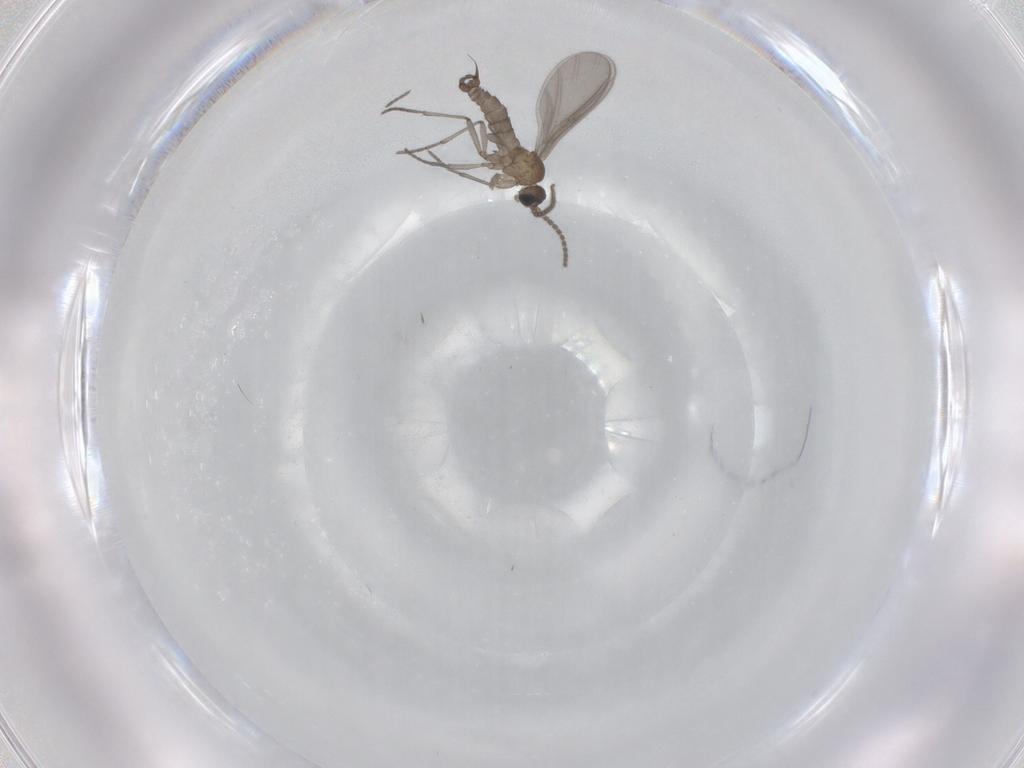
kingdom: Animalia
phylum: Arthropoda
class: Insecta
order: Diptera
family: Sciaridae
